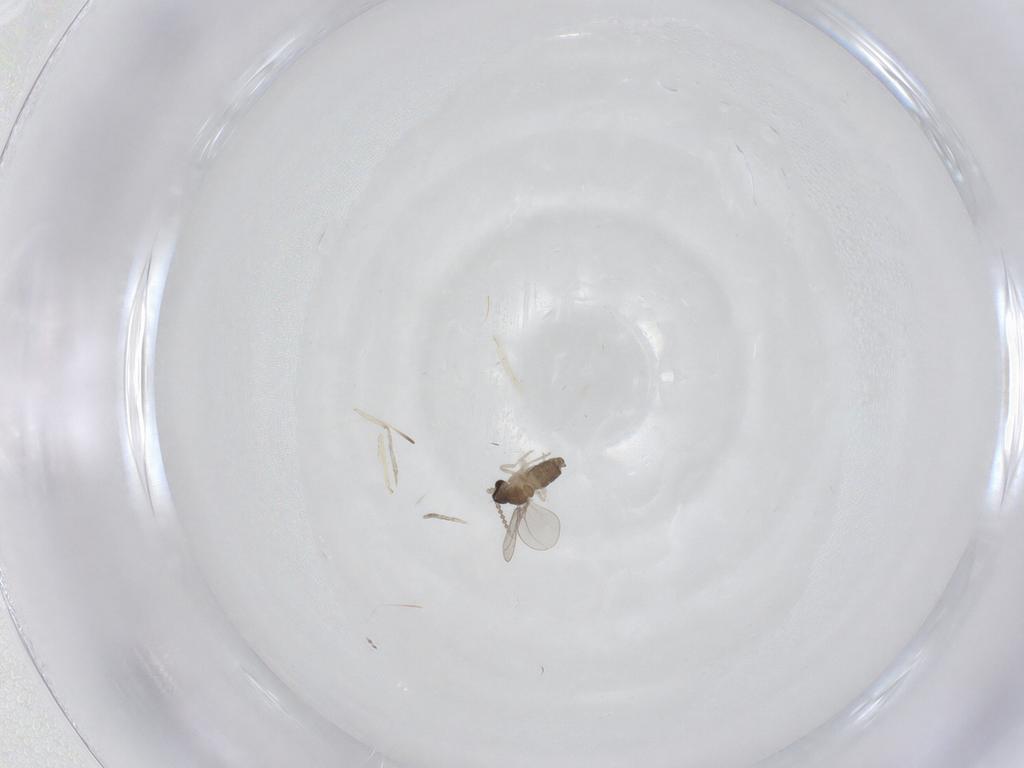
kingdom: Animalia
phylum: Arthropoda
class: Insecta
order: Diptera
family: Cecidomyiidae
